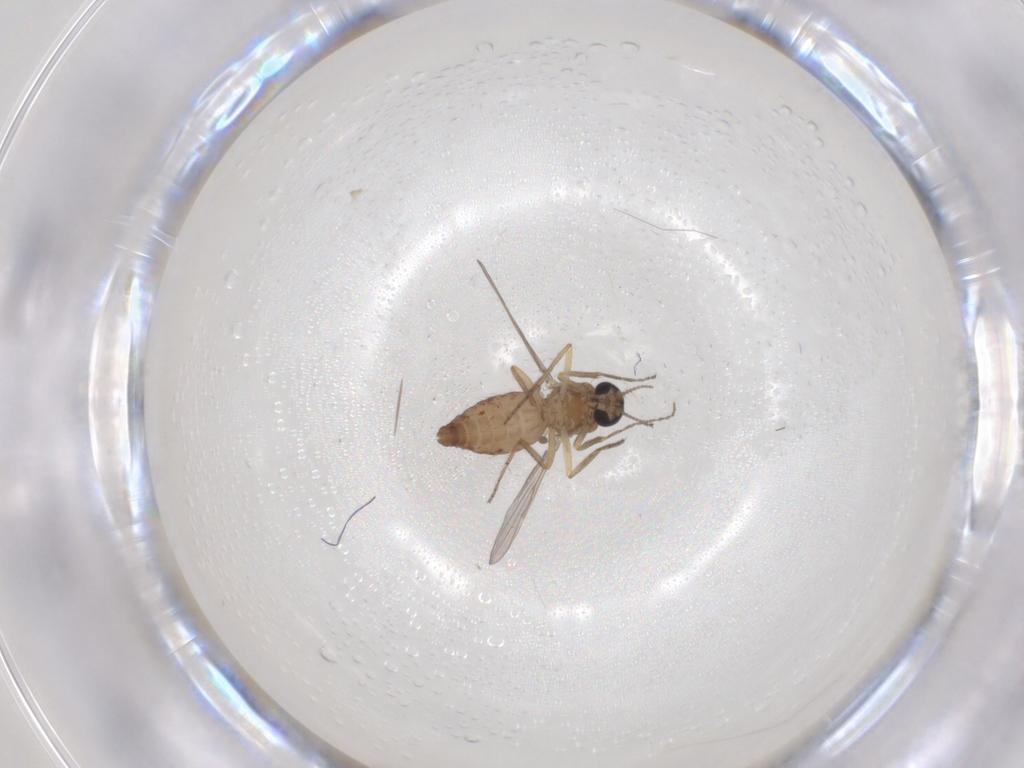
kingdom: Animalia
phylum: Arthropoda
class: Insecta
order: Diptera
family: Ceratopogonidae
